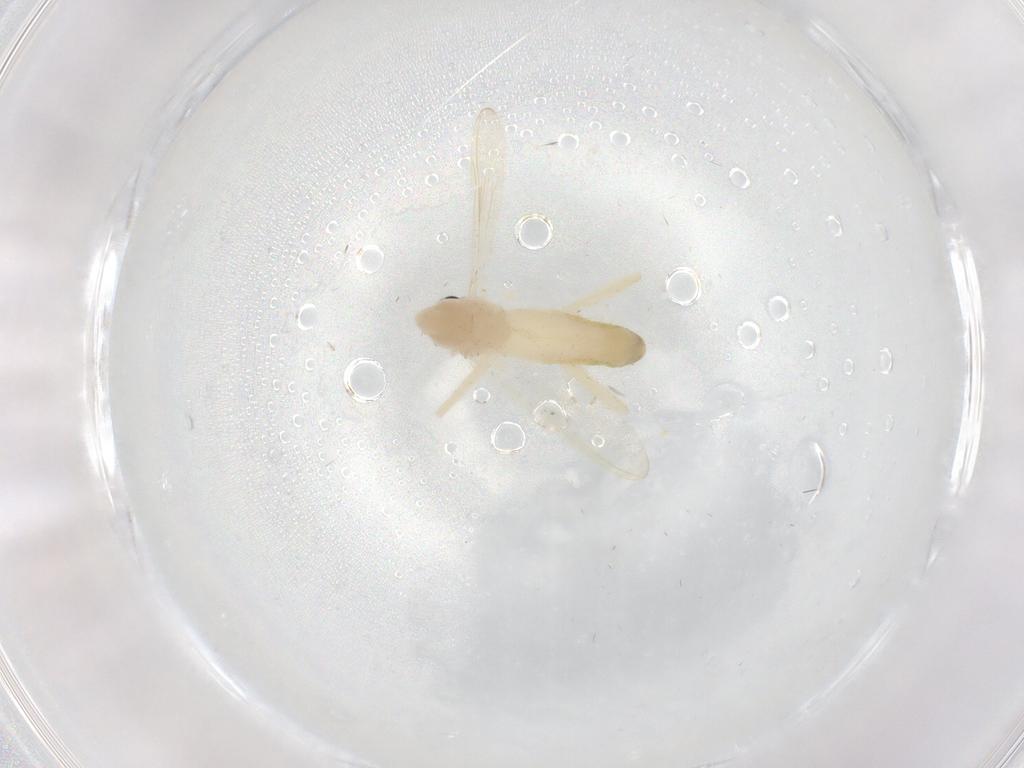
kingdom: Animalia
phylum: Arthropoda
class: Insecta
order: Diptera
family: Chironomidae
